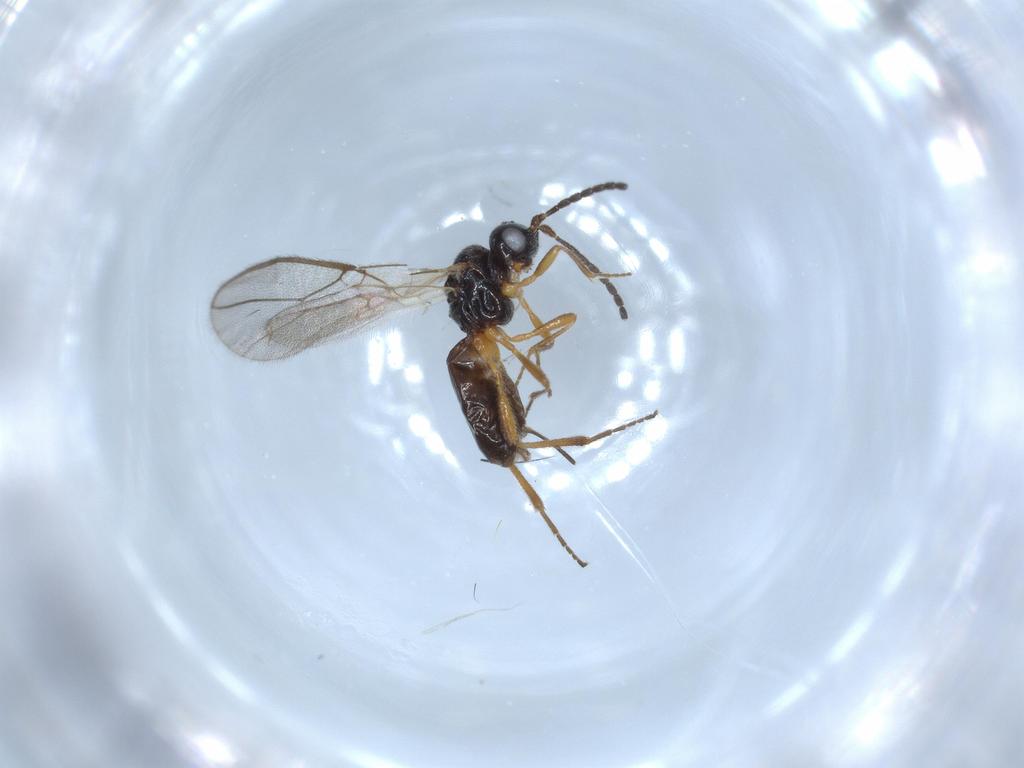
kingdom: Animalia
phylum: Arthropoda
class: Insecta
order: Hymenoptera
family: Braconidae
